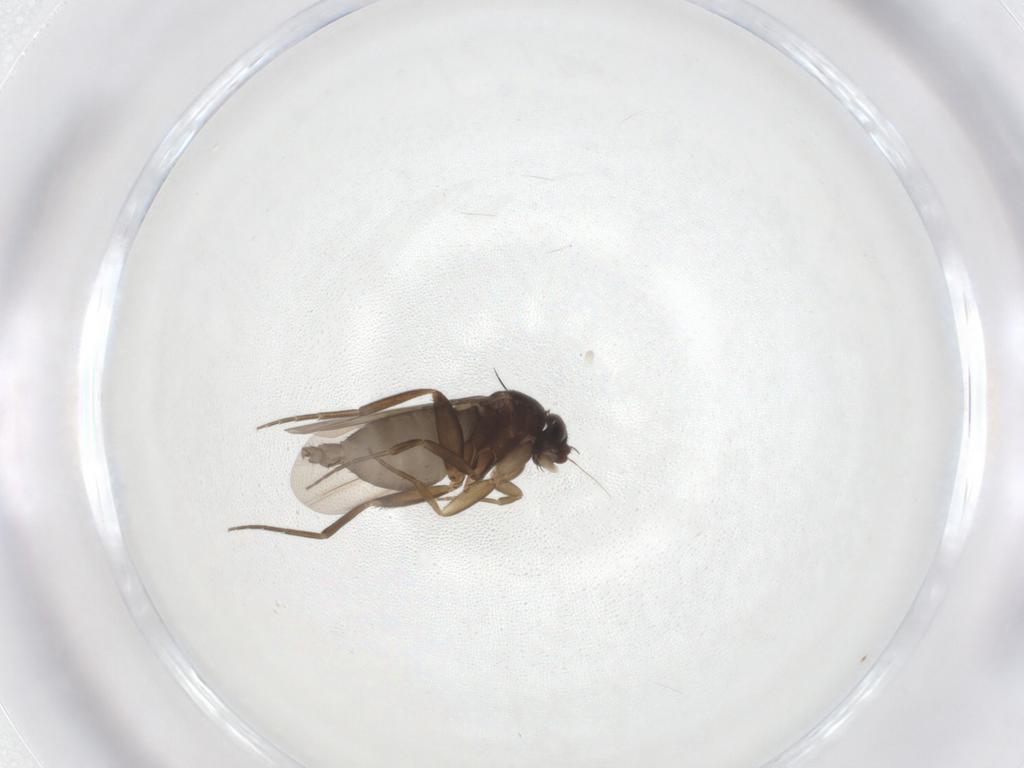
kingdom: Animalia
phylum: Arthropoda
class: Insecta
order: Diptera
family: Phoridae
